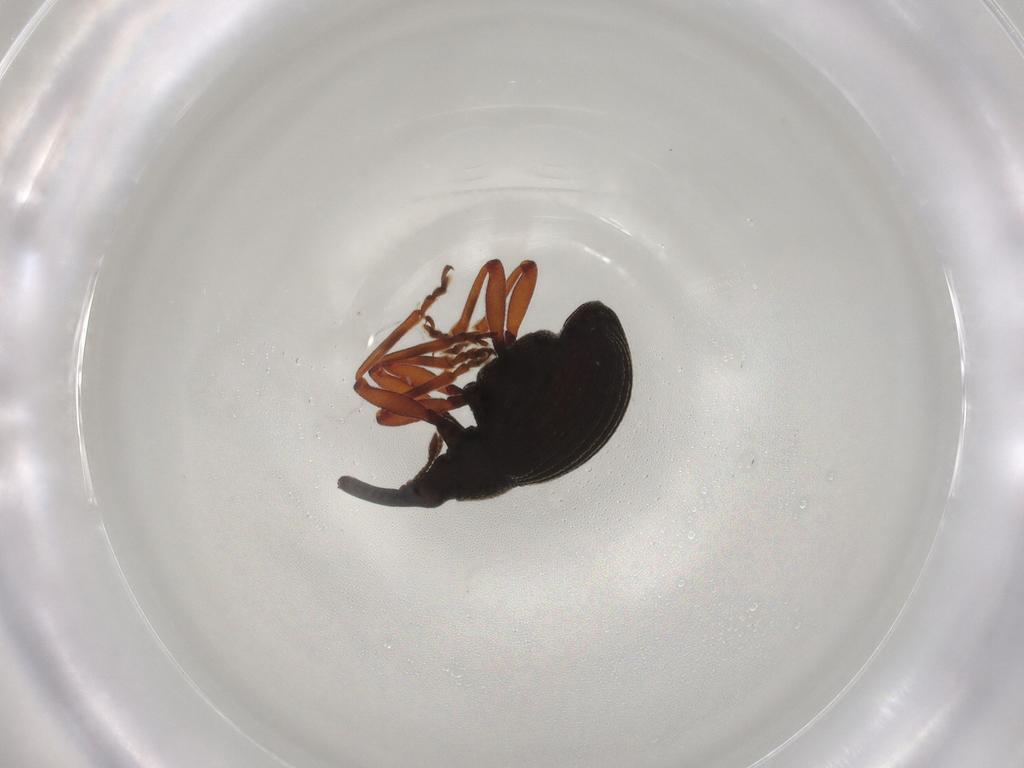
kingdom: Animalia
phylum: Arthropoda
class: Insecta
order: Coleoptera
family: Brentidae
